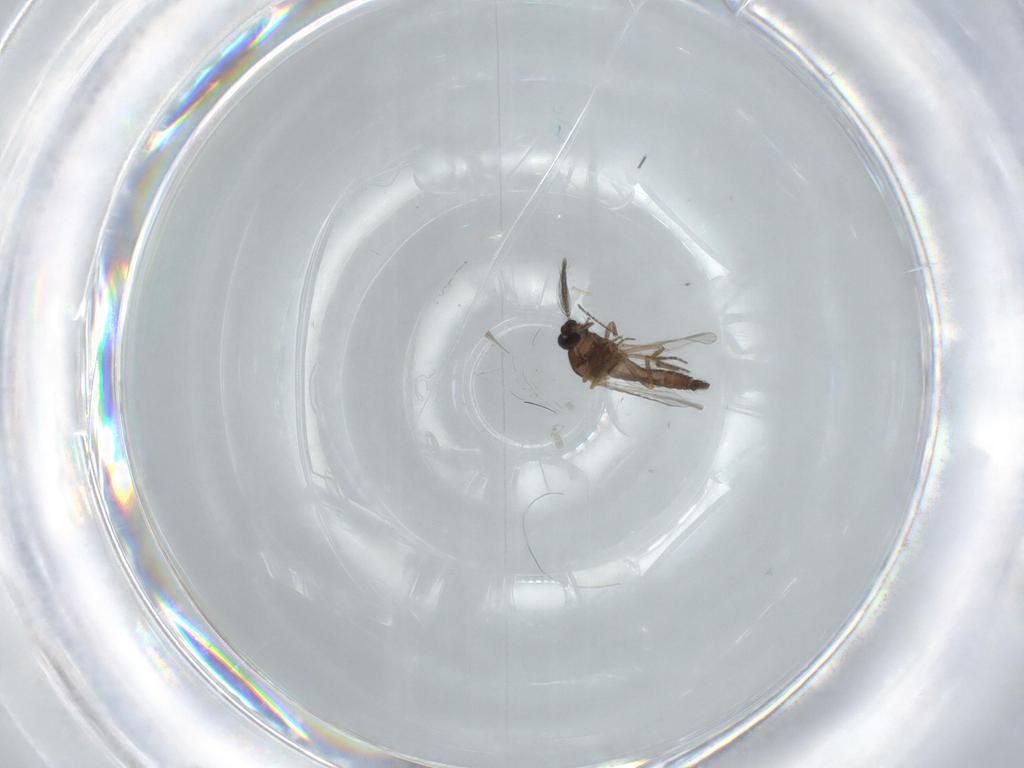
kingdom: Animalia
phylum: Arthropoda
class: Insecta
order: Diptera
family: Ceratopogonidae
